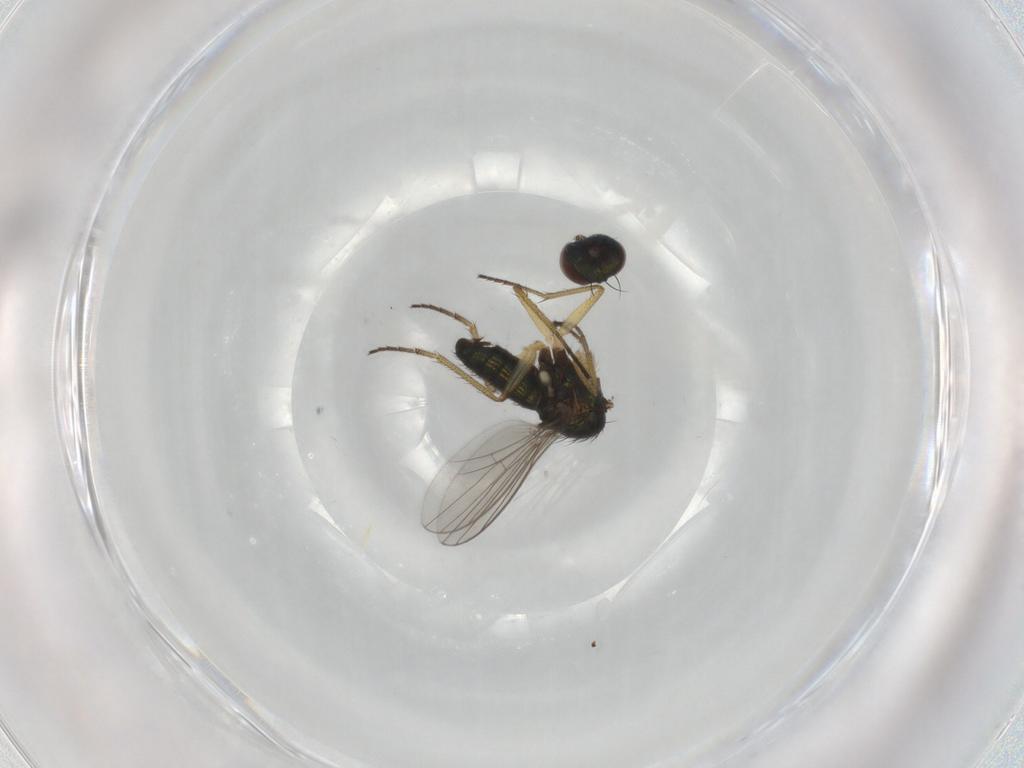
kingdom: Animalia
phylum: Arthropoda
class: Insecta
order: Diptera
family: Dolichopodidae
